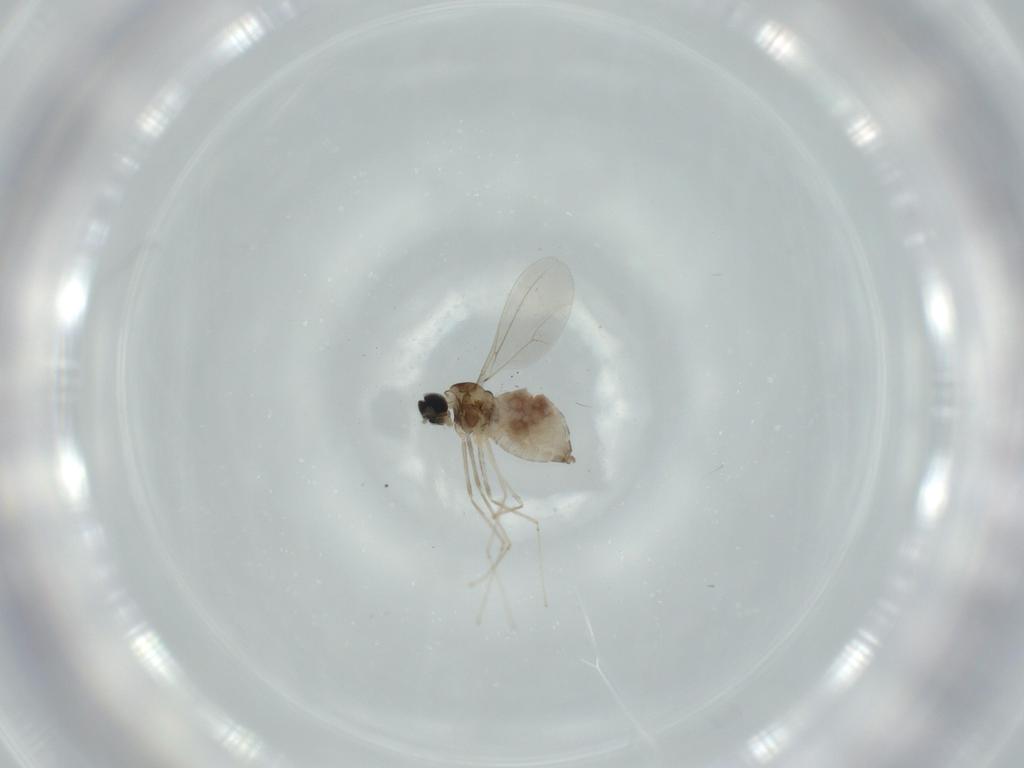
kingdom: Animalia
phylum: Arthropoda
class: Insecta
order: Diptera
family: Cecidomyiidae
